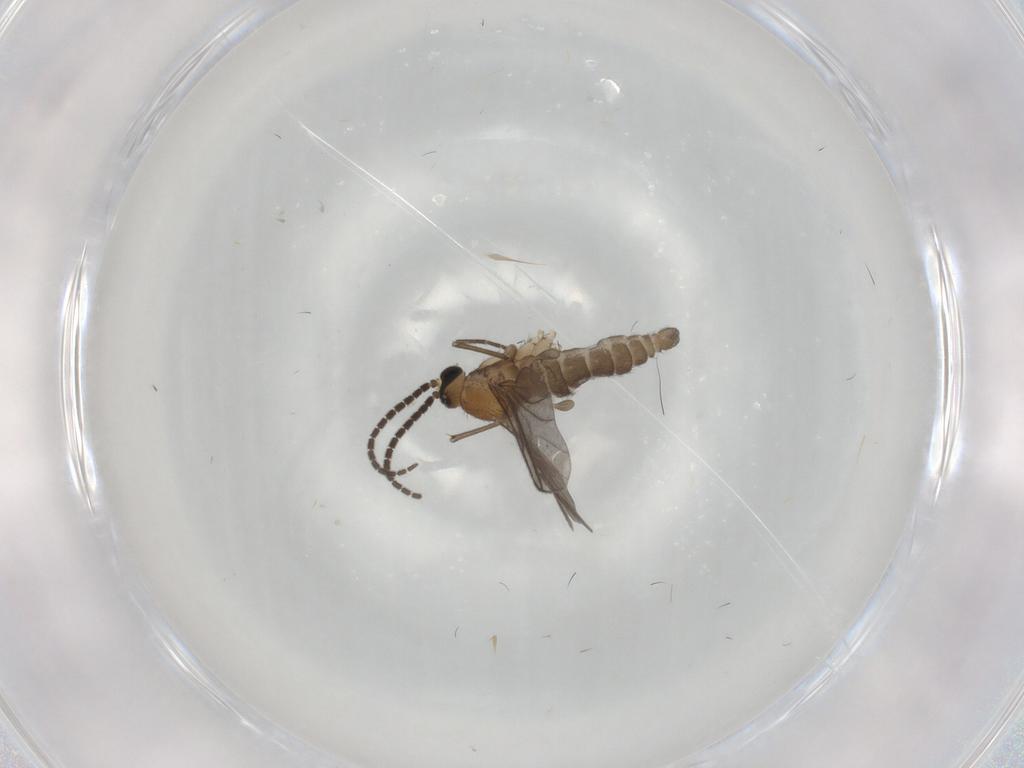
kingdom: Animalia
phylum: Arthropoda
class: Insecta
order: Diptera
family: Sciaridae
